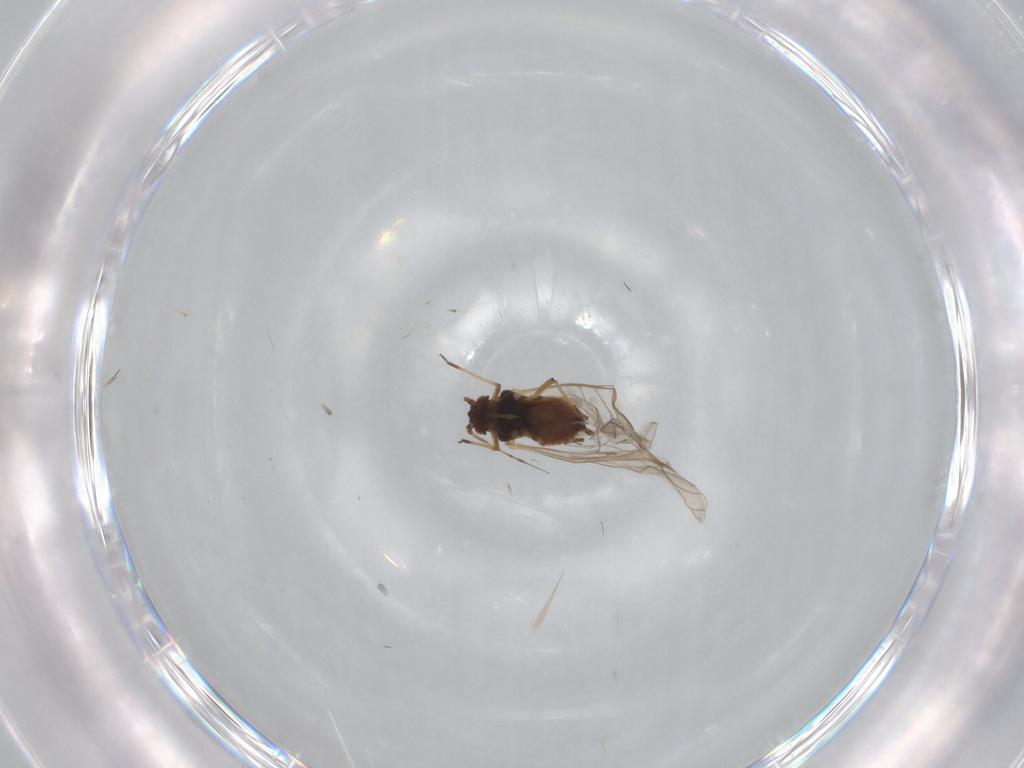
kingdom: Animalia
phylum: Arthropoda
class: Insecta
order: Hemiptera
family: Aphididae
